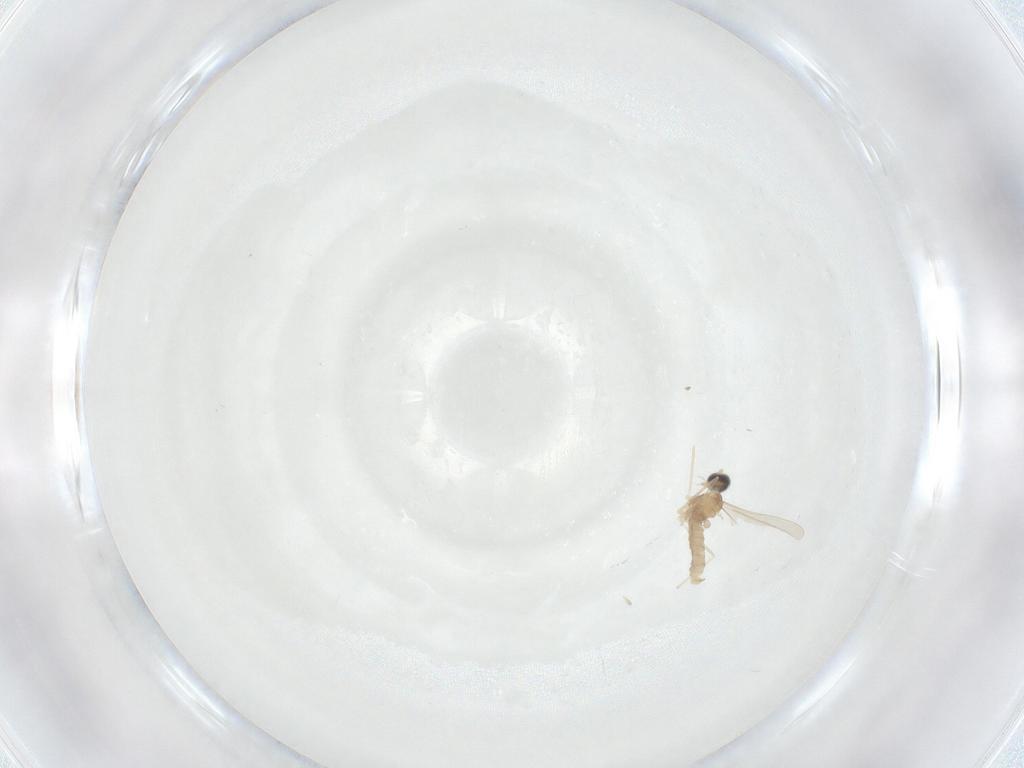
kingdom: Animalia
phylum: Arthropoda
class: Insecta
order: Diptera
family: Cecidomyiidae
